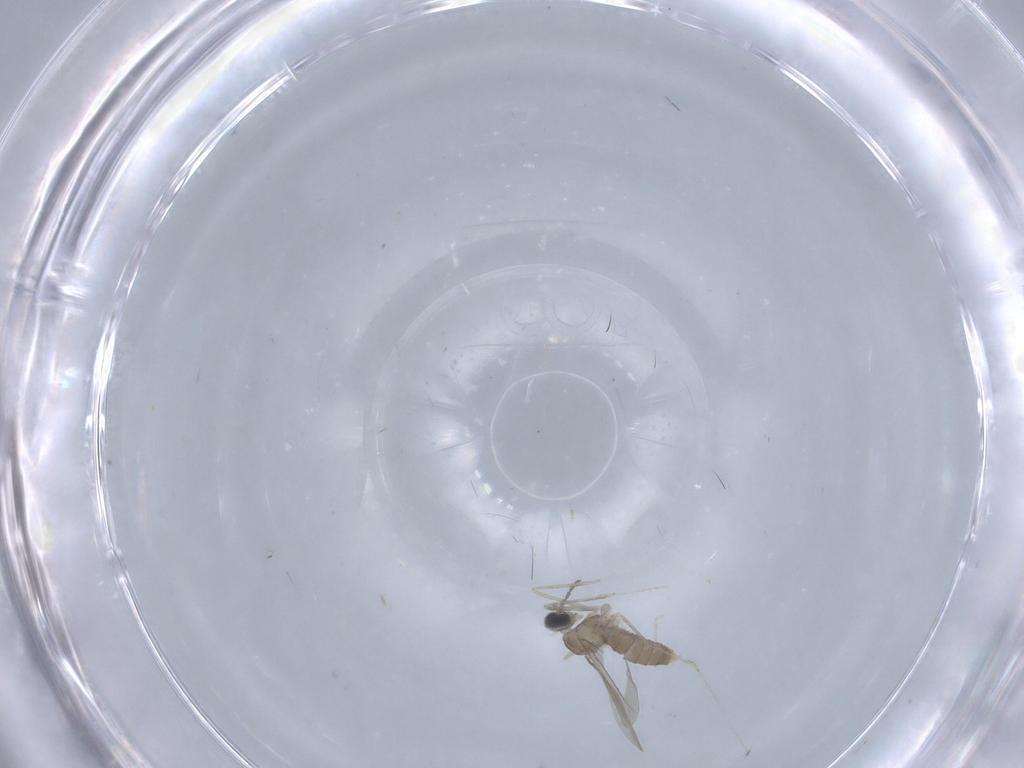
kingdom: Animalia
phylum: Arthropoda
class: Insecta
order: Diptera
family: Cecidomyiidae
